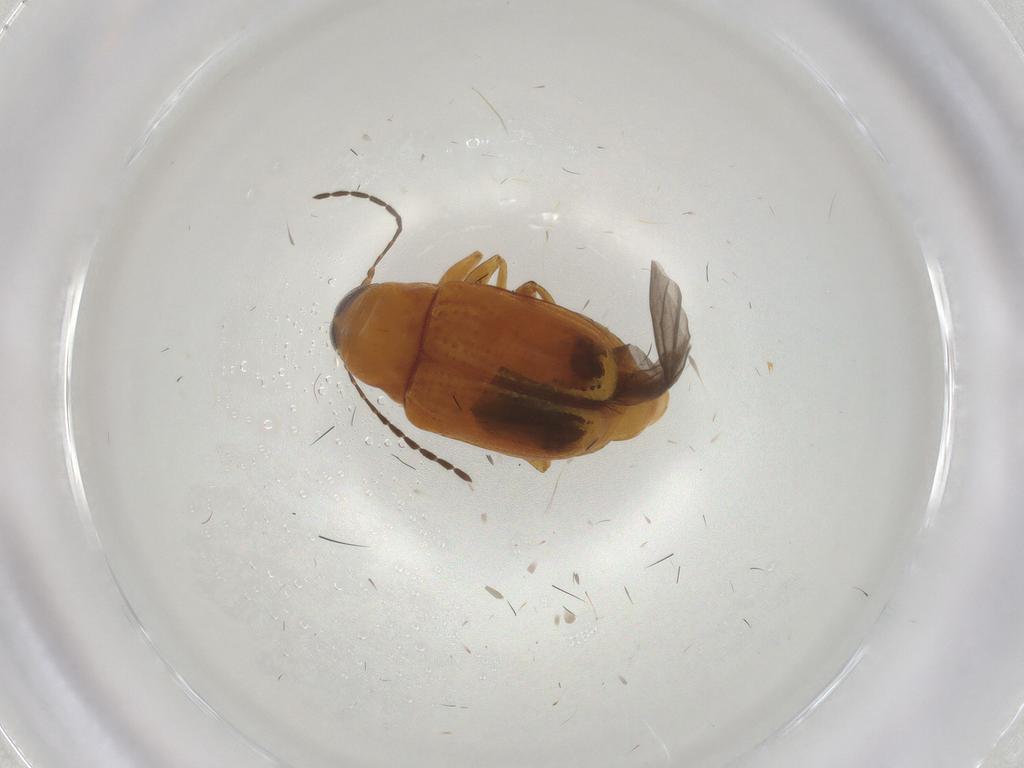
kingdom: Animalia
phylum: Arthropoda
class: Insecta
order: Coleoptera
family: Chrysomelidae
